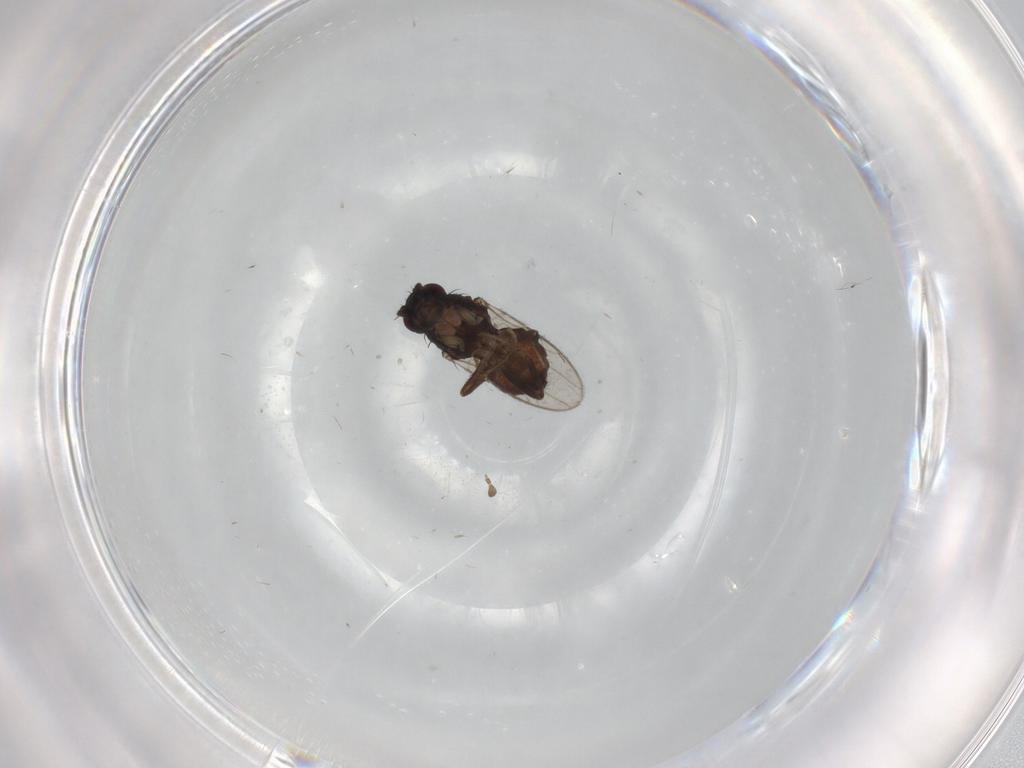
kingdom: Animalia
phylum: Arthropoda
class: Insecta
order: Diptera
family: Sphaeroceridae
